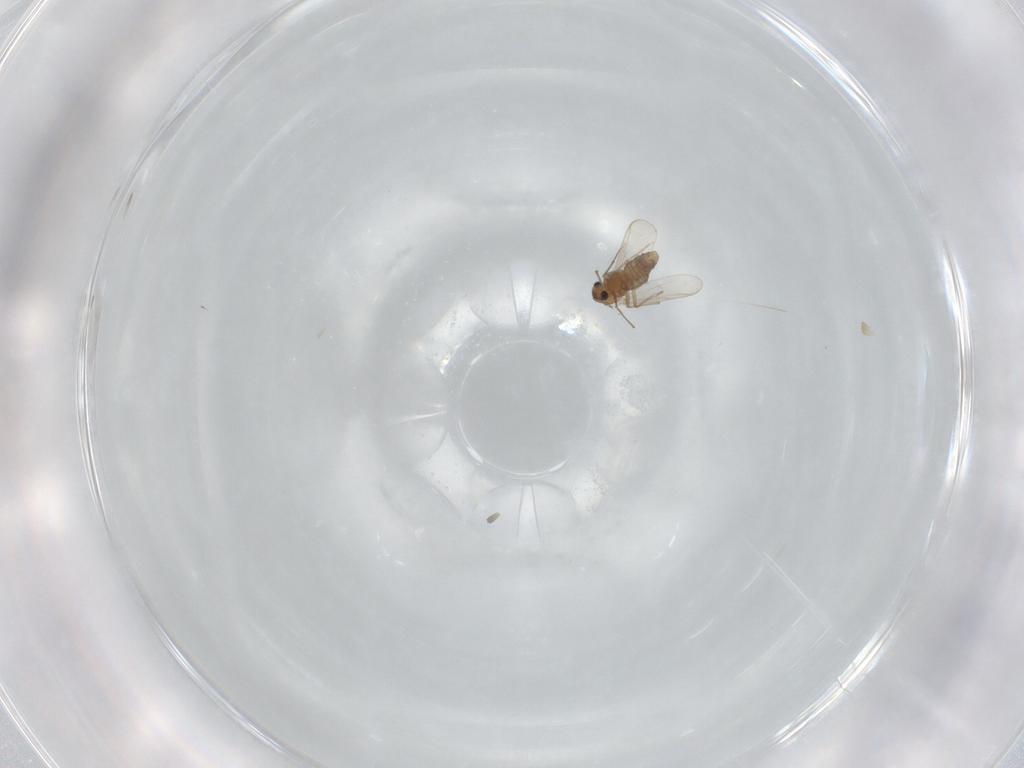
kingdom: Animalia
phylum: Arthropoda
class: Insecta
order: Diptera
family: Chironomidae
